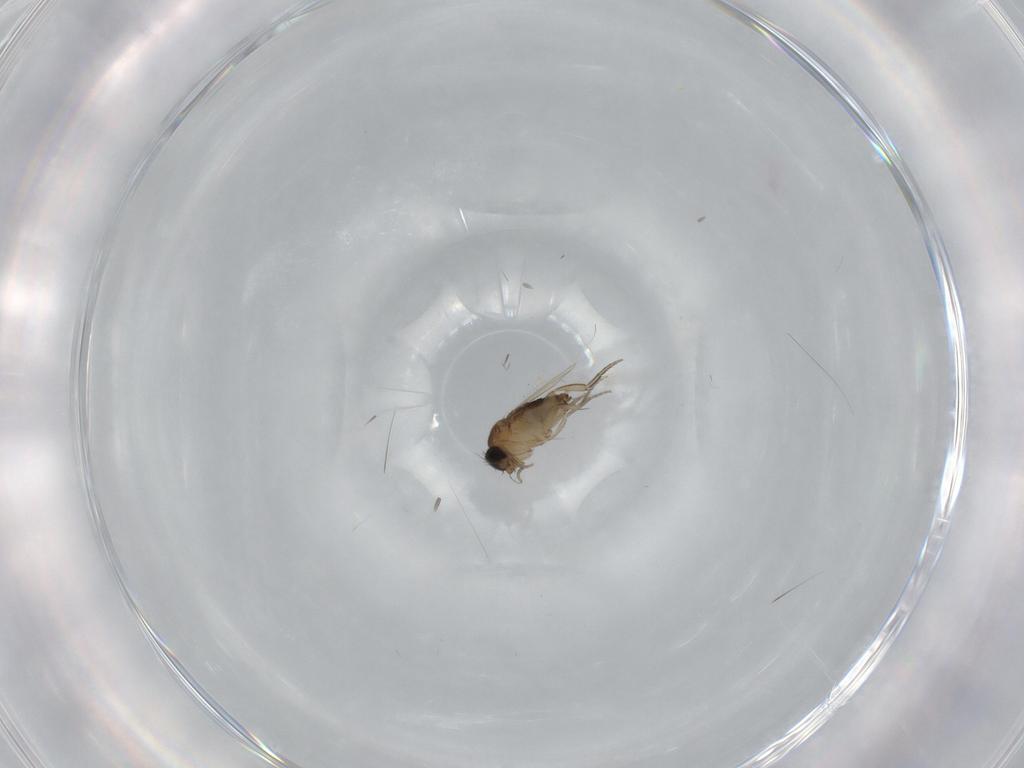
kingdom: Animalia
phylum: Arthropoda
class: Insecta
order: Diptera
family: Phoridae
